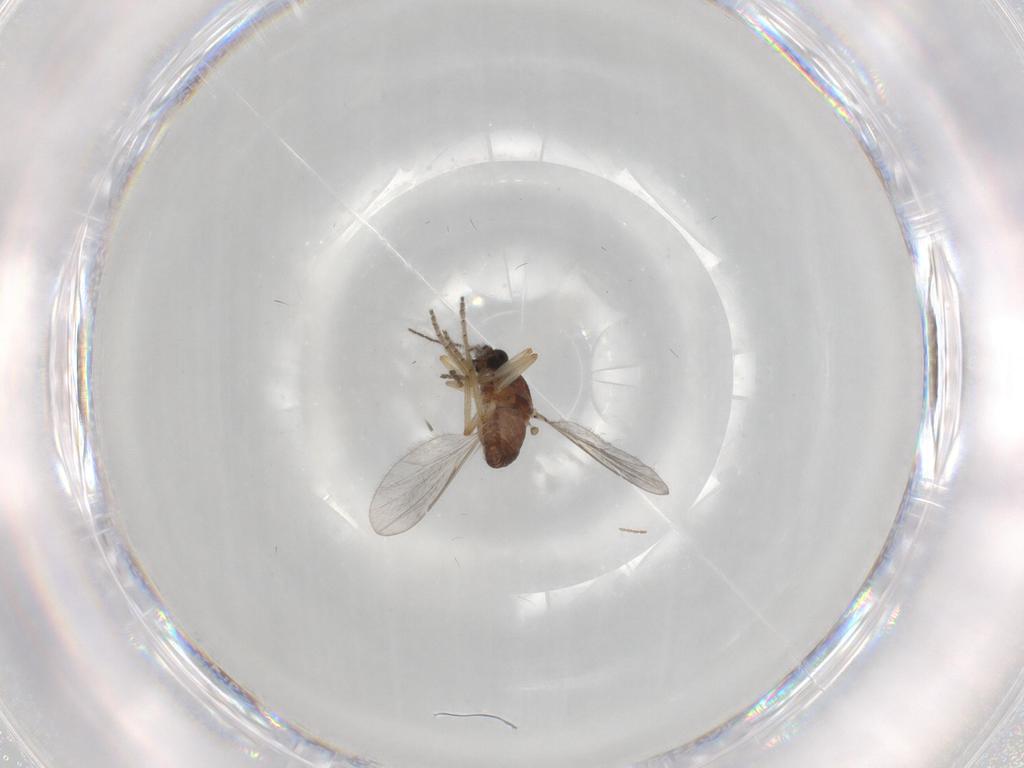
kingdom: Animalia
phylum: Arthropoda
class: Insecta
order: Diptera
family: Ceratopogonidae
